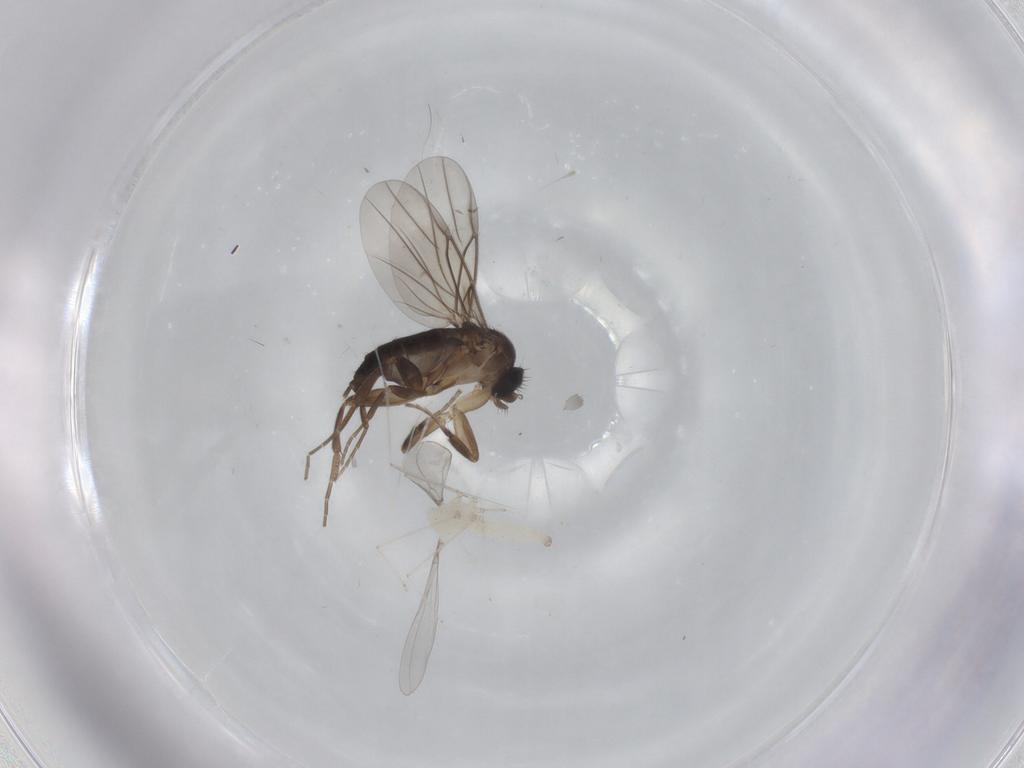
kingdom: Animalia
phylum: Arthropoda
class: Insecta
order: Diptera
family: Phoridae
